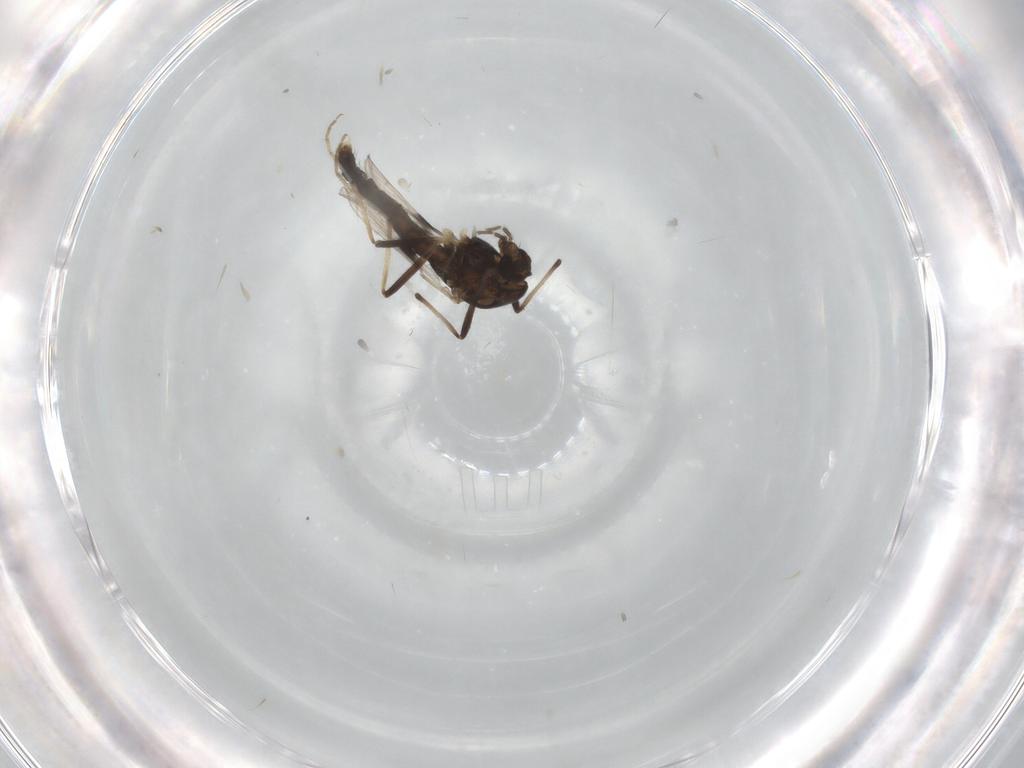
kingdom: Animalia
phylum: Arthropoda
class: Insecta
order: Diptera
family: Chironomidae
